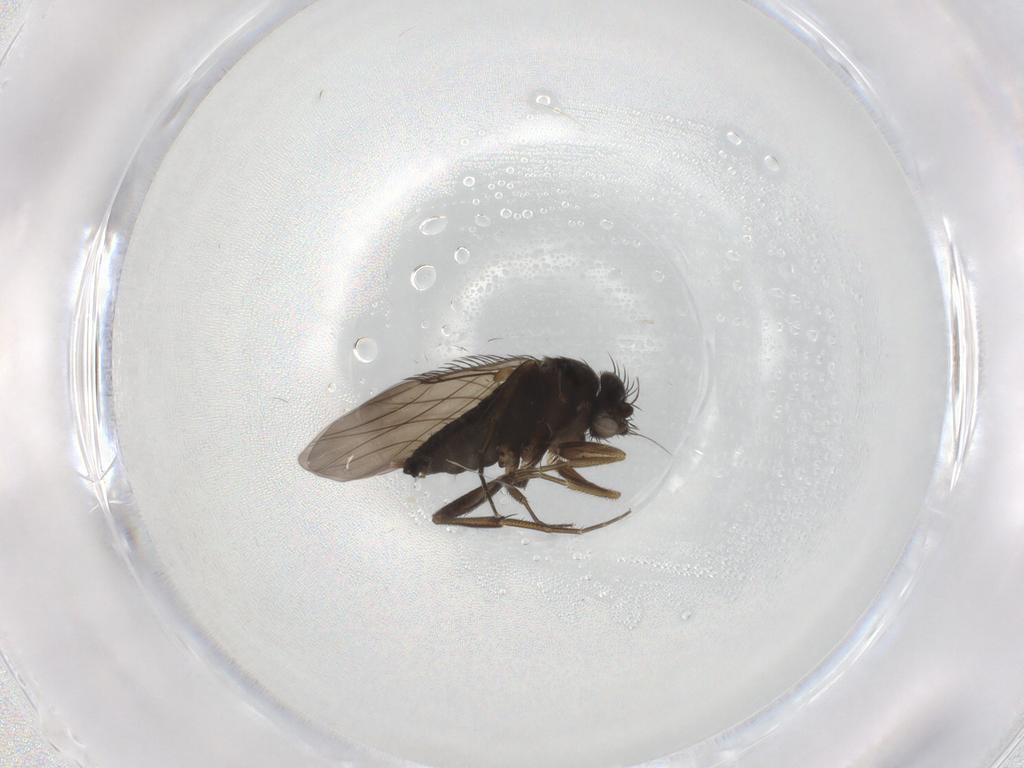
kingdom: Animalia
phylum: Arthropoda
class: Insecta
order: Diptera
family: Phoridae
